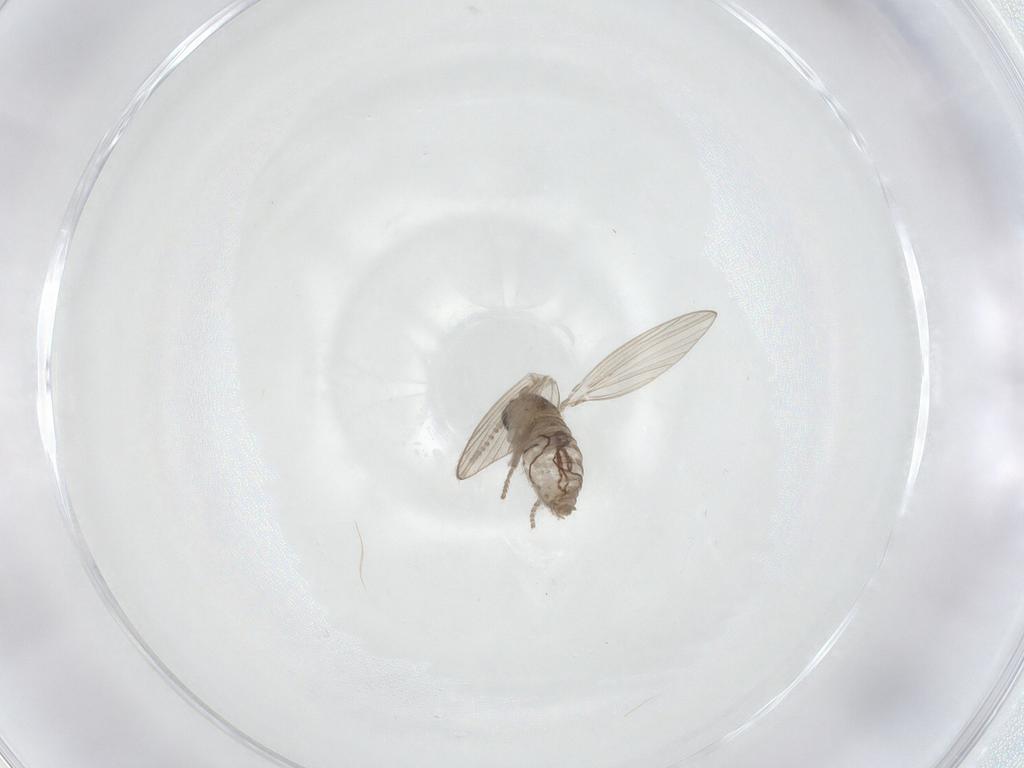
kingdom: Animalia
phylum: Arthropoda
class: Insecta
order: Diptera
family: Psychodidae
